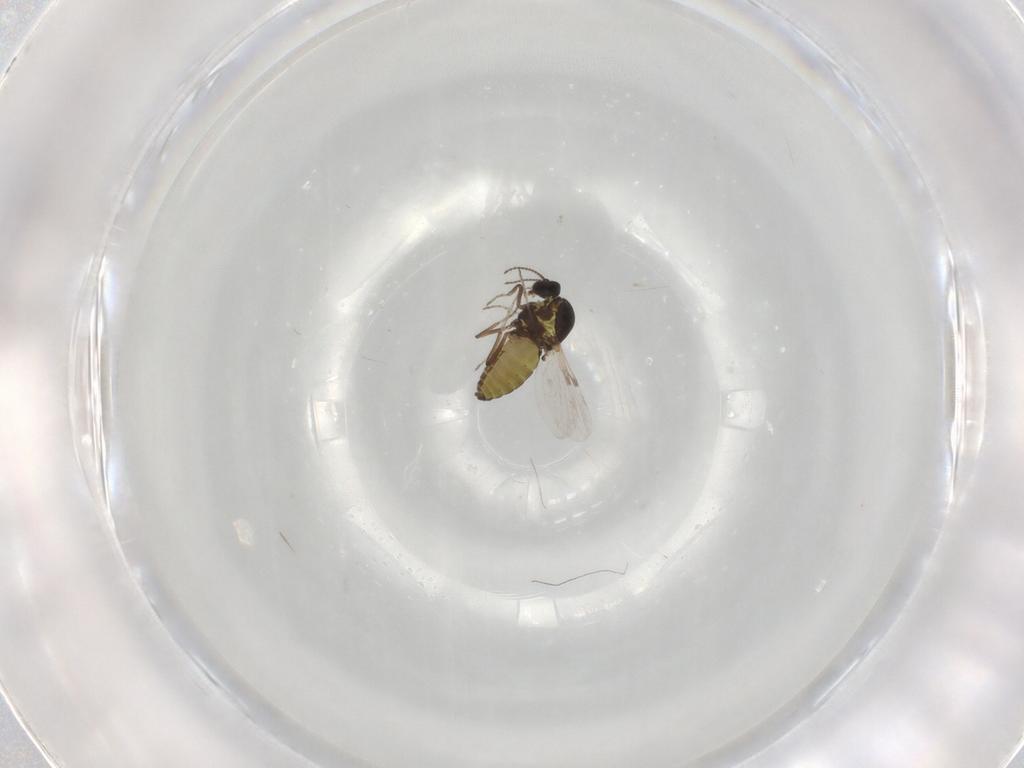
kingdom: Animalia
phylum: Arthropoda
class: Insecta
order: Diptera
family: Ceratopogonidae
